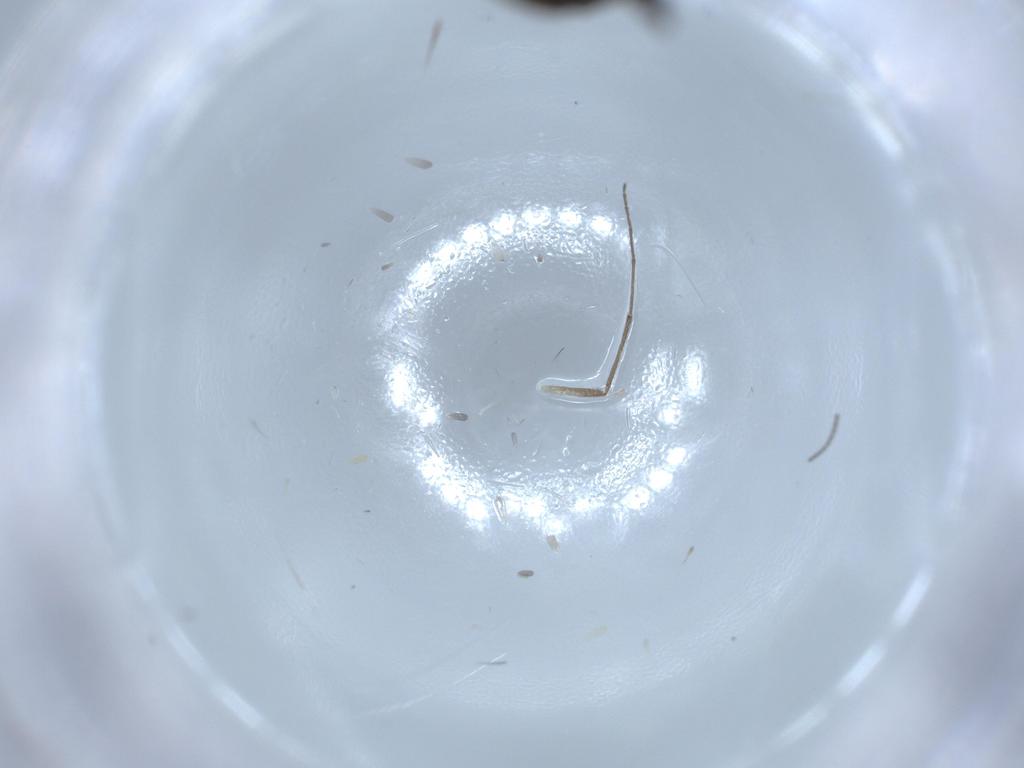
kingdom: Animalia
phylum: Arthropoda
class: Insecta
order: Diptera
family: Sciaridae
